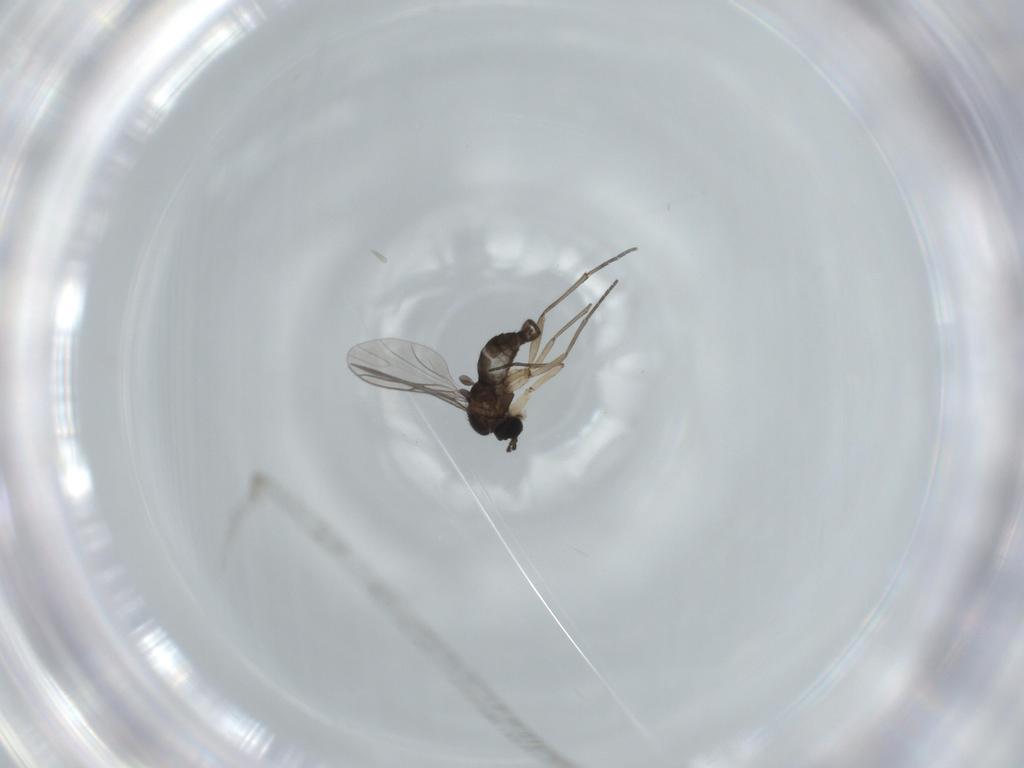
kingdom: Animalia
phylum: Arthropoda
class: Insecta
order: Diptera
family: Sciaridae
